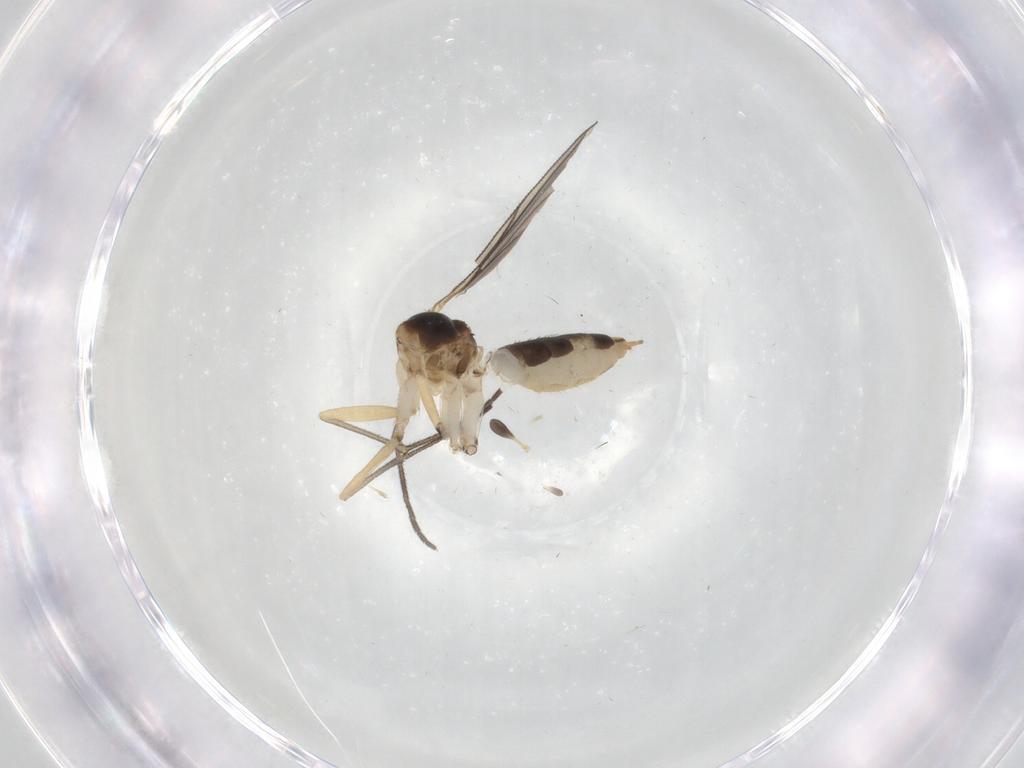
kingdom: Animalia
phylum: Arthropoda
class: Insecta
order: Diptera
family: Sciaridae
